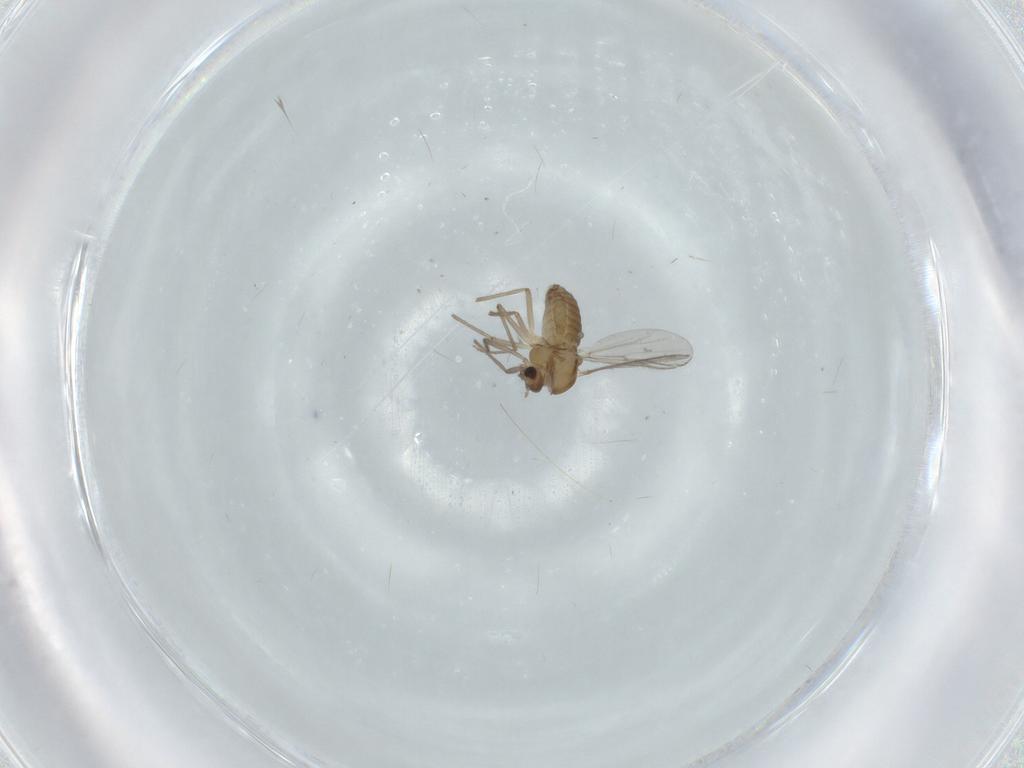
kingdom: Animalia
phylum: Arthropoda
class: Insecta
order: Diptera
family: Chironomidae
